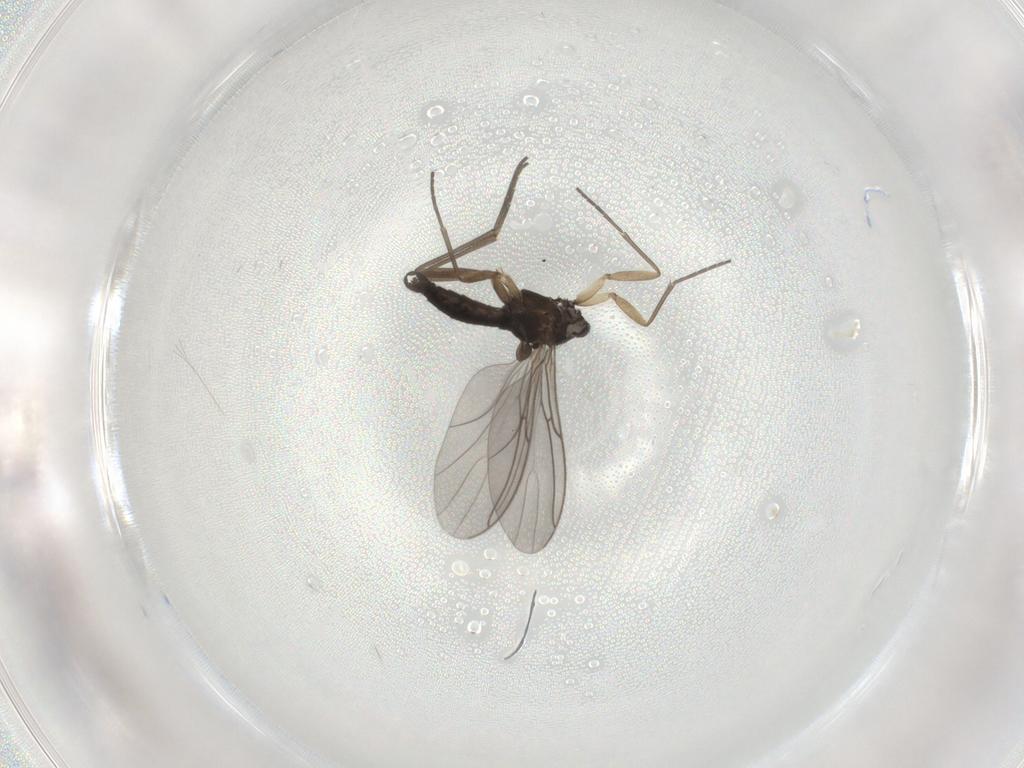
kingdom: Animalia
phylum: Arthropoda
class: Insecta
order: Diptera
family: Sciaridae
